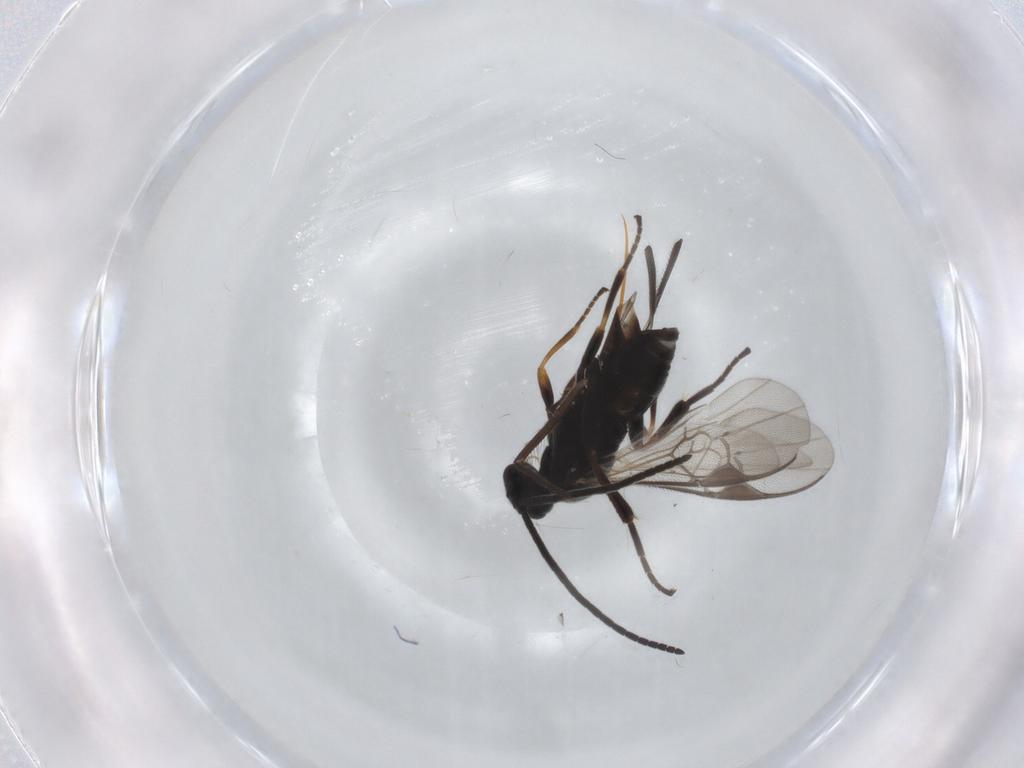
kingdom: Animalia
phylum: Arthropoda
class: Insecta
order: Hymenoptera
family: Braconidae
